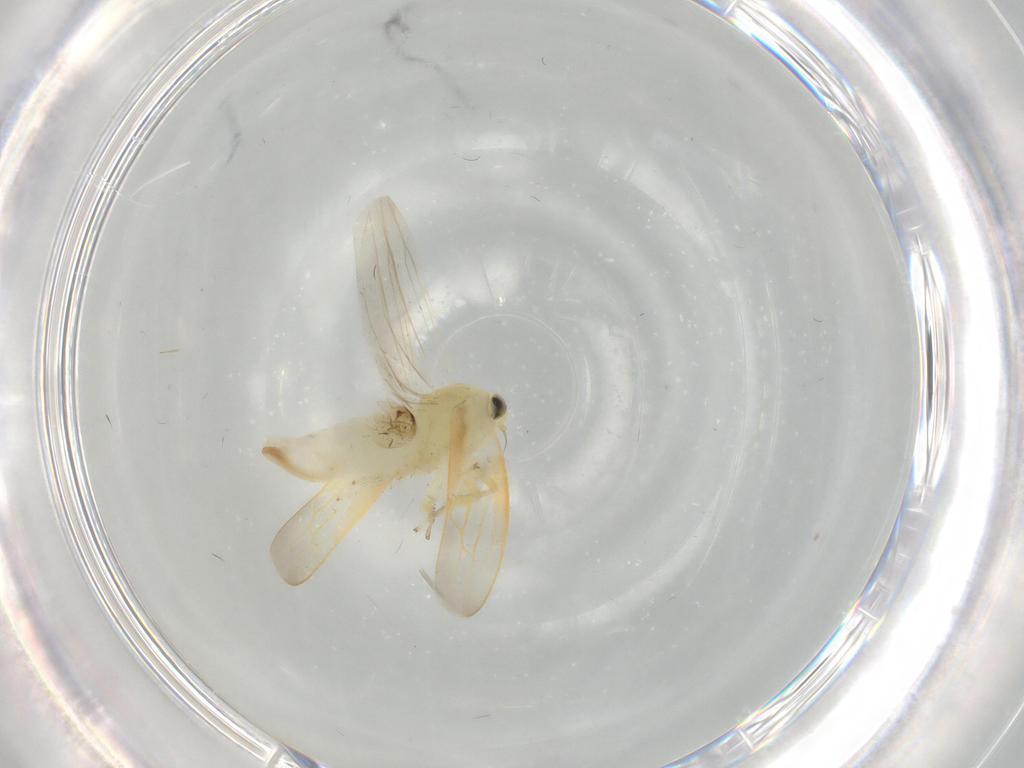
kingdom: Animalia
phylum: Arthropoda
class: Insecta
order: Hymenoptera
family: Dryinidae
